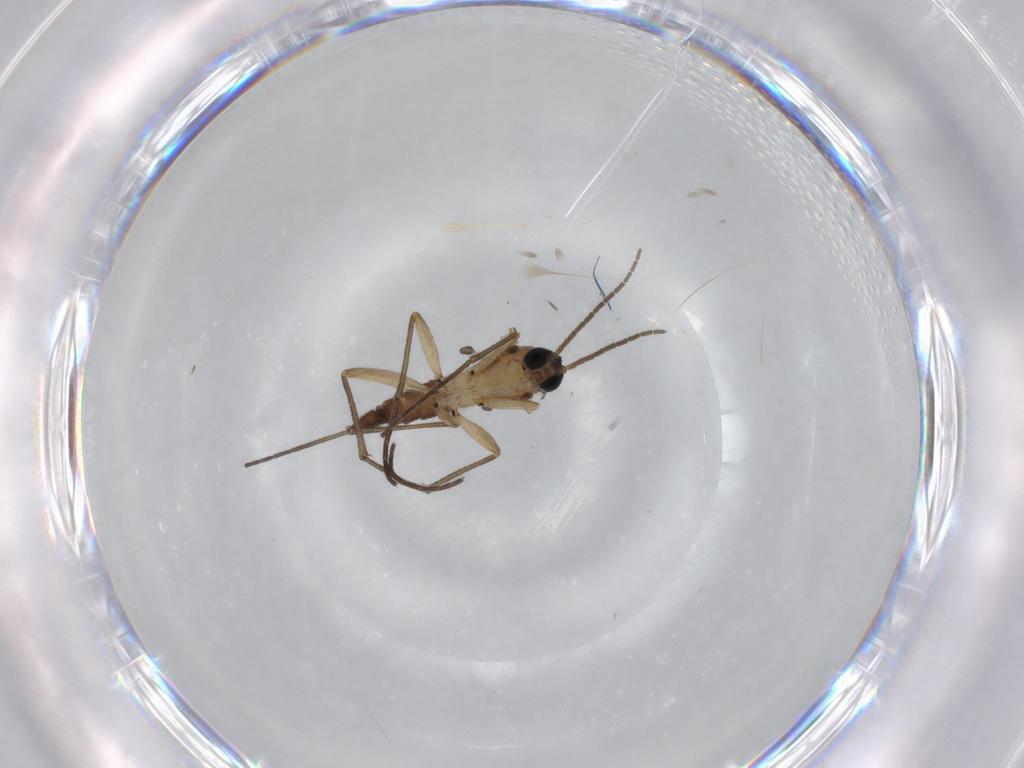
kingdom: Animalia
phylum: Arthropoda
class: Insecta
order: Diptera
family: Sciaridae
